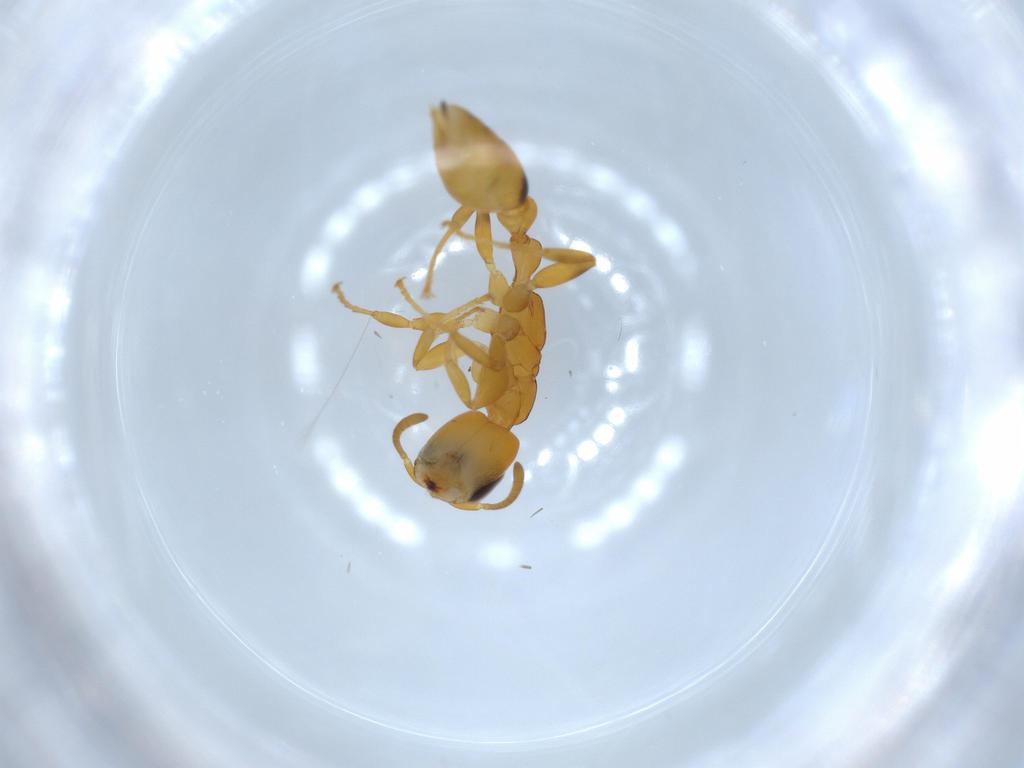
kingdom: Animalia
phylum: Arthropoda
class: Insecta
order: Hymenoptera
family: Formicidae
